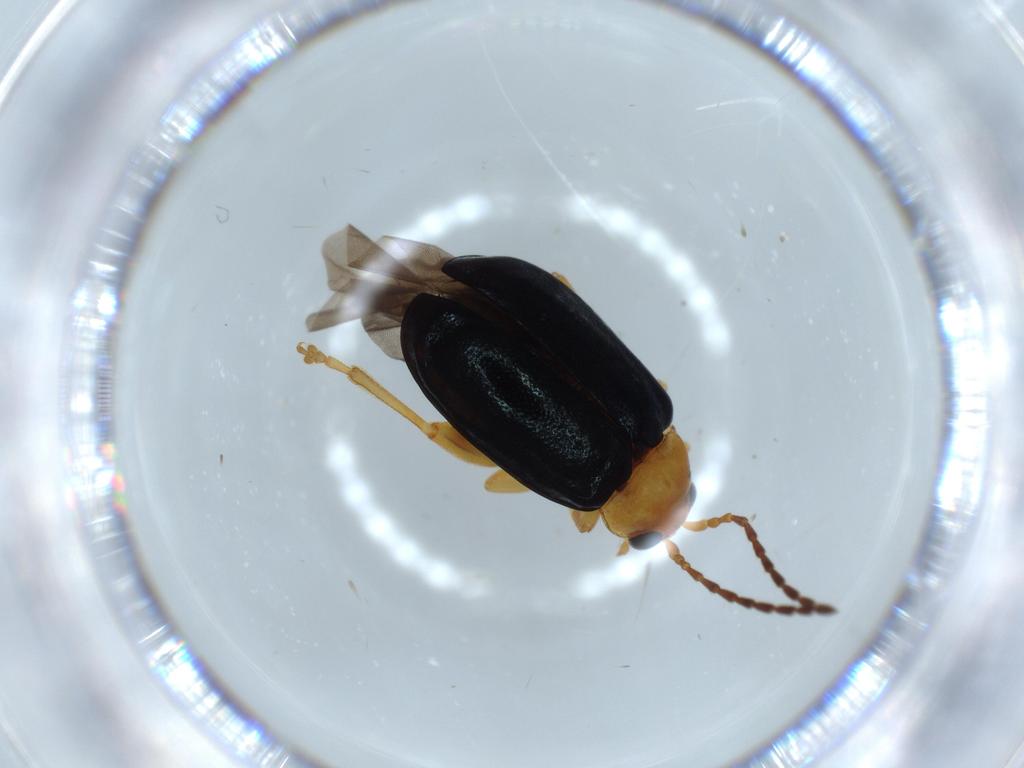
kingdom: Animalia
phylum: Arthropoda
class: Insecta
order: Coleoptera
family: Chrysomelidae
